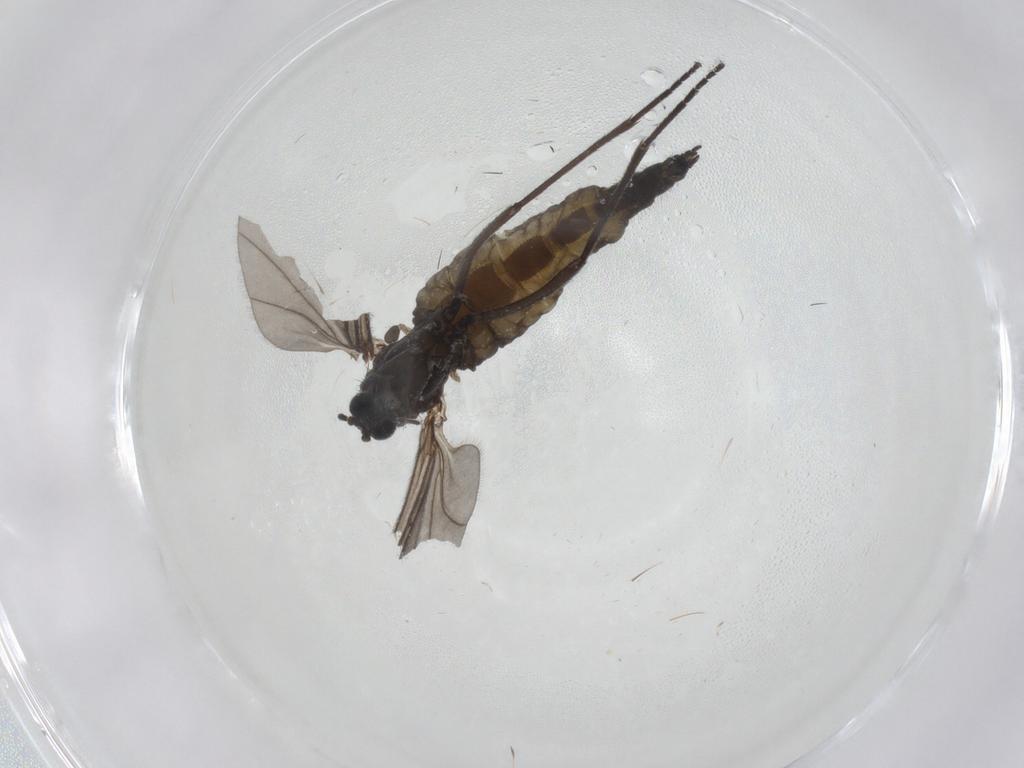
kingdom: Animalia
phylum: Arthropoda
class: Insecta
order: Diptera
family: Sciaridae
